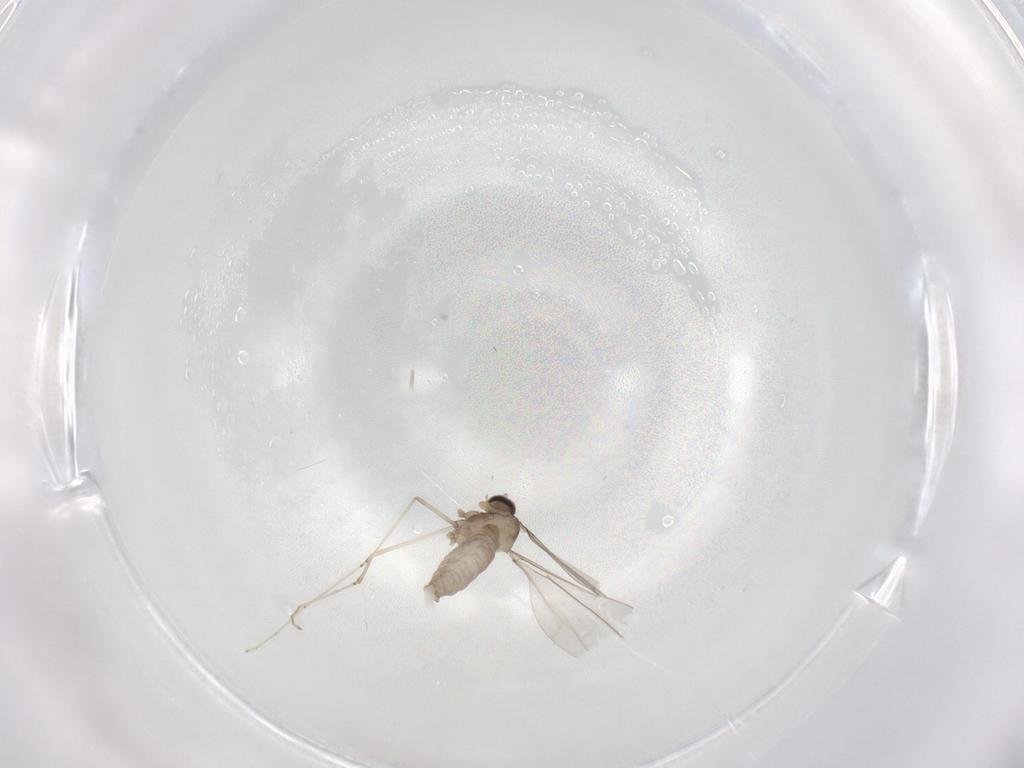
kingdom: Animalia
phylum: Arthropoda
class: Insecta
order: Diptera
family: Cecidomyiidae
